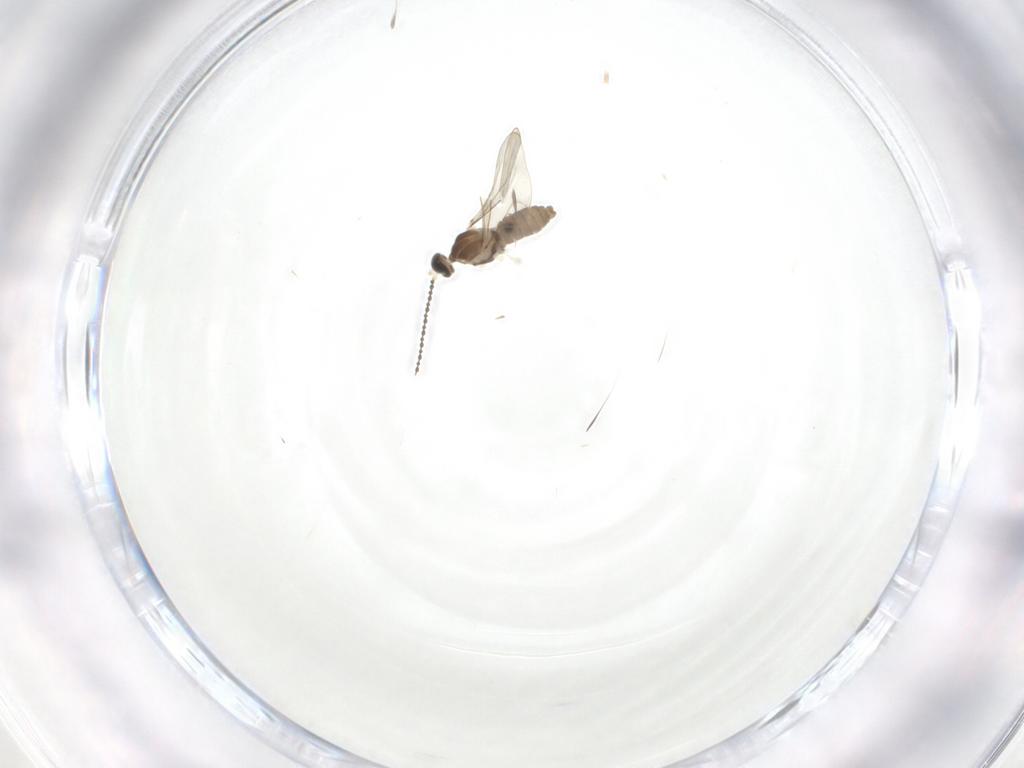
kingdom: Animalia
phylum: Arthropoda
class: Insecta
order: Diptera
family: Cecidomyiidae
